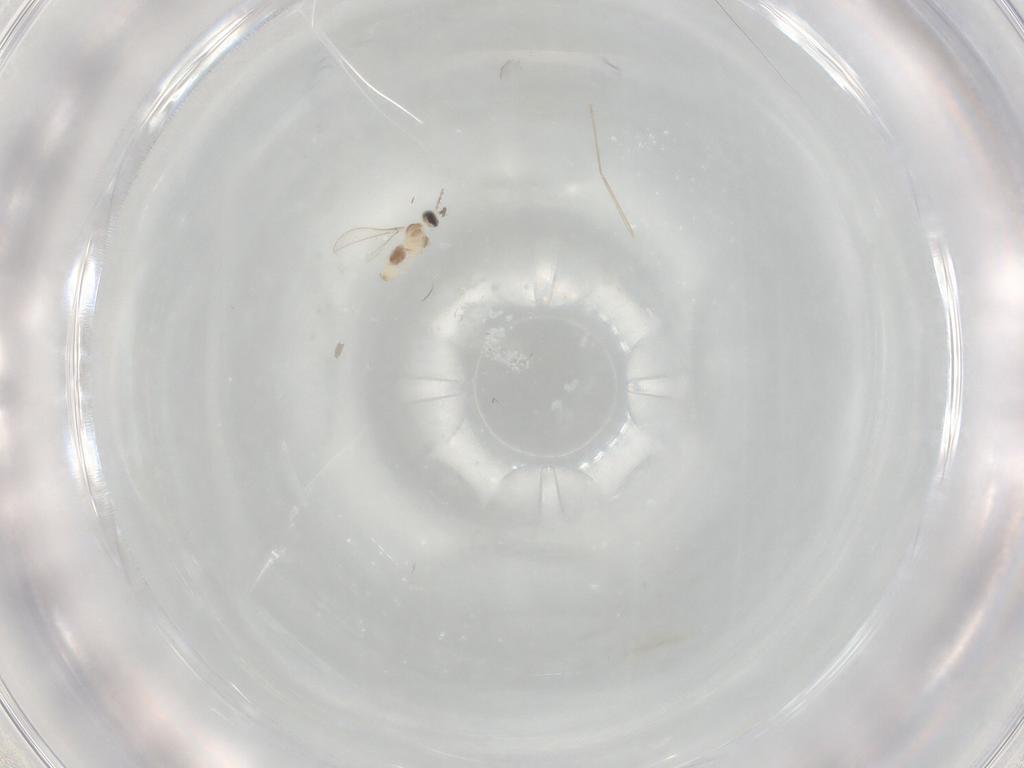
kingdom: Animalia
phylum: Arthropoda
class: Insecta
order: Diptera
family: Cecidomyiidae
